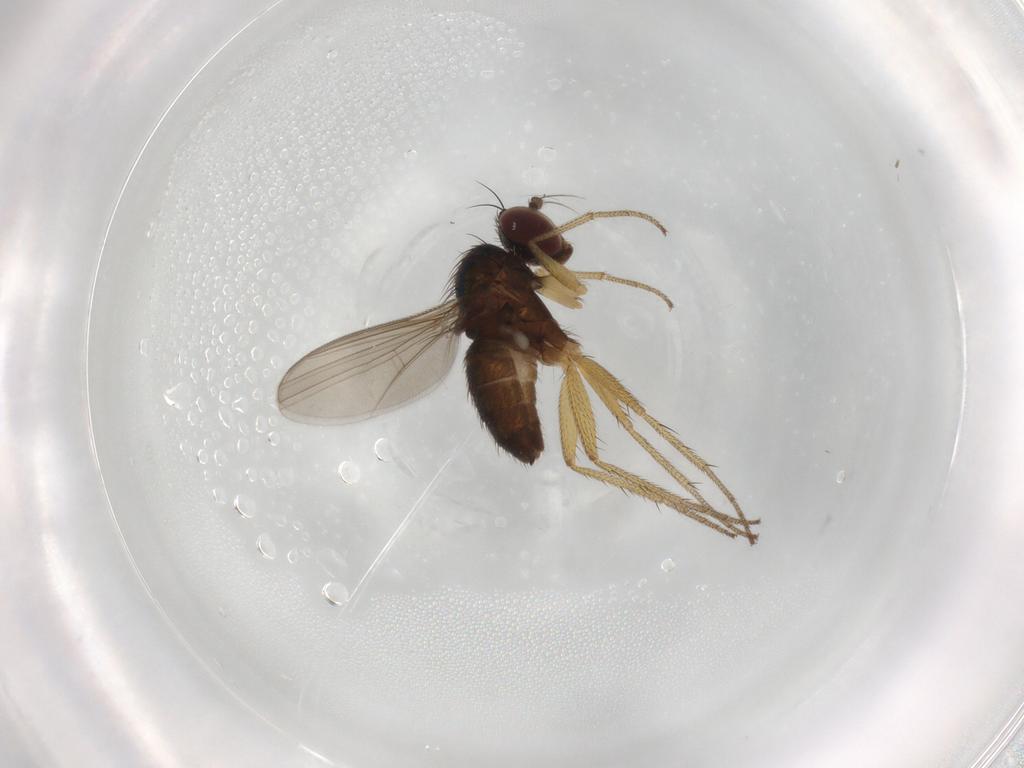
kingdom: Animalia
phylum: Arthropoda
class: Insecta
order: Diptera
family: Dolichopodidae
